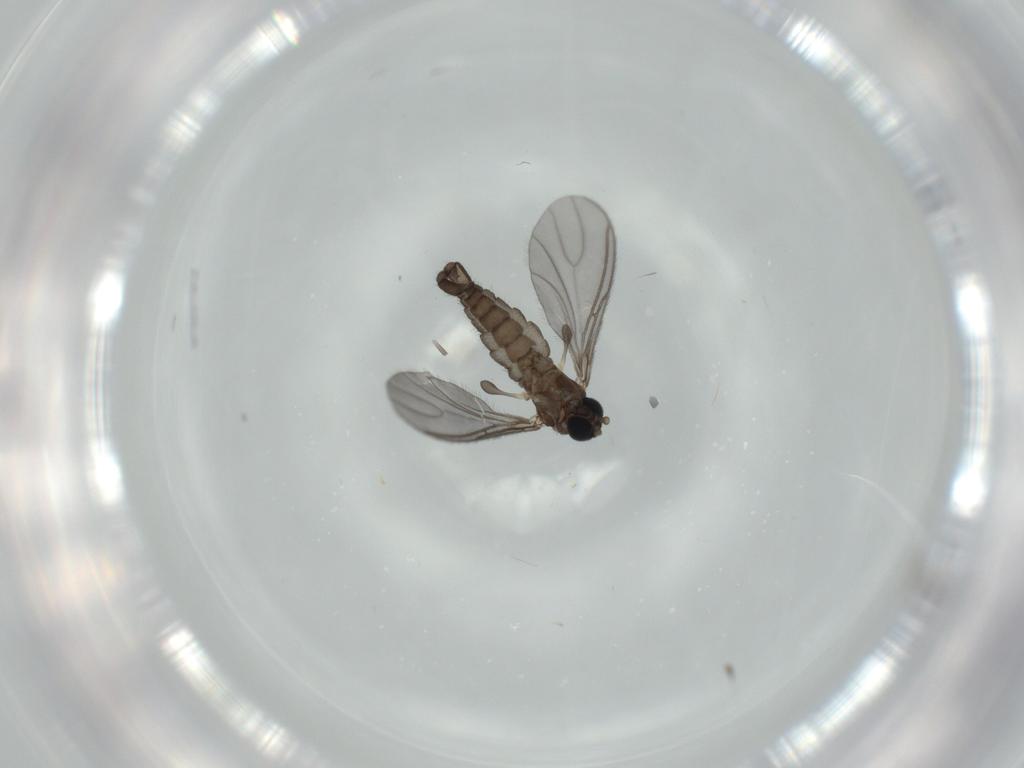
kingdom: Animalia
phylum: Arthropoda
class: Insecta
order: Diptera
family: Sciaridae
